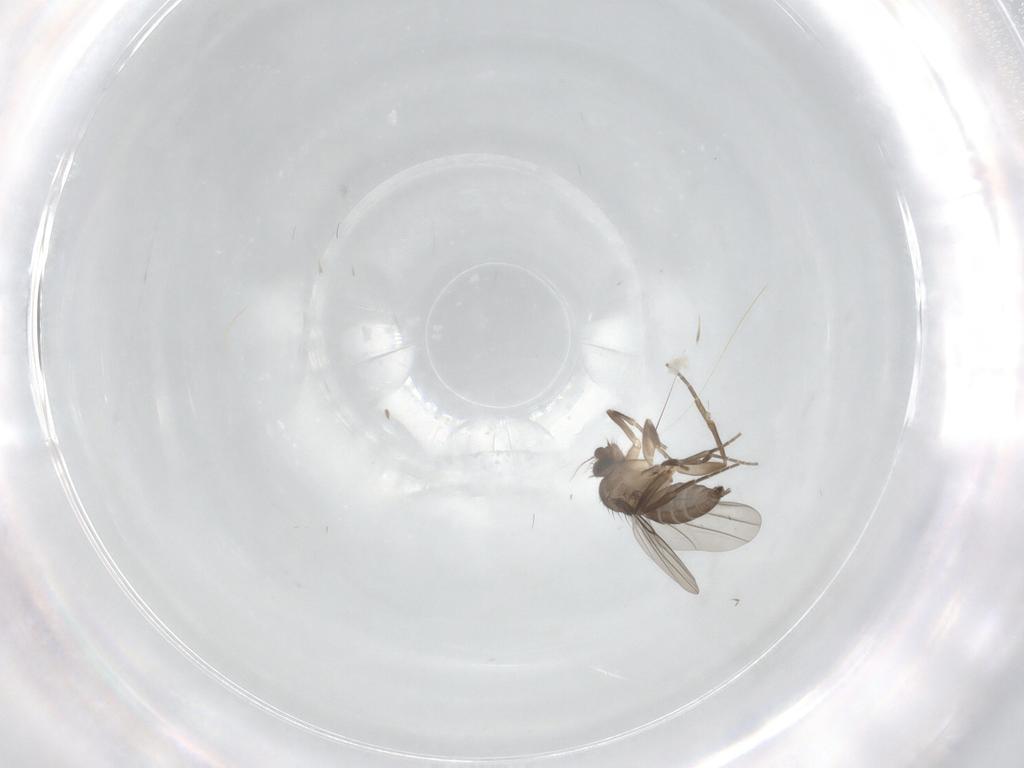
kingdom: Animalia
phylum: Arthropoda
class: Insecta
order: Diptera
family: Phoridae
